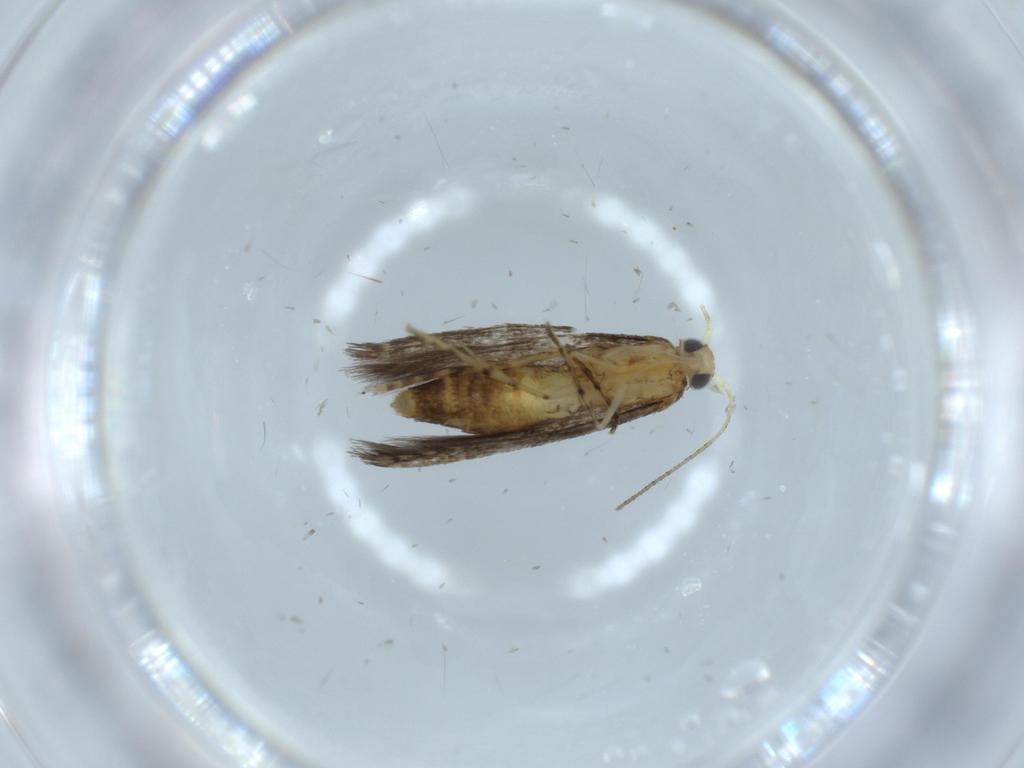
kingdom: Animalia
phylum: Arthropoda
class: Insecta
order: Lepidoptera
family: Argyresthiidae
